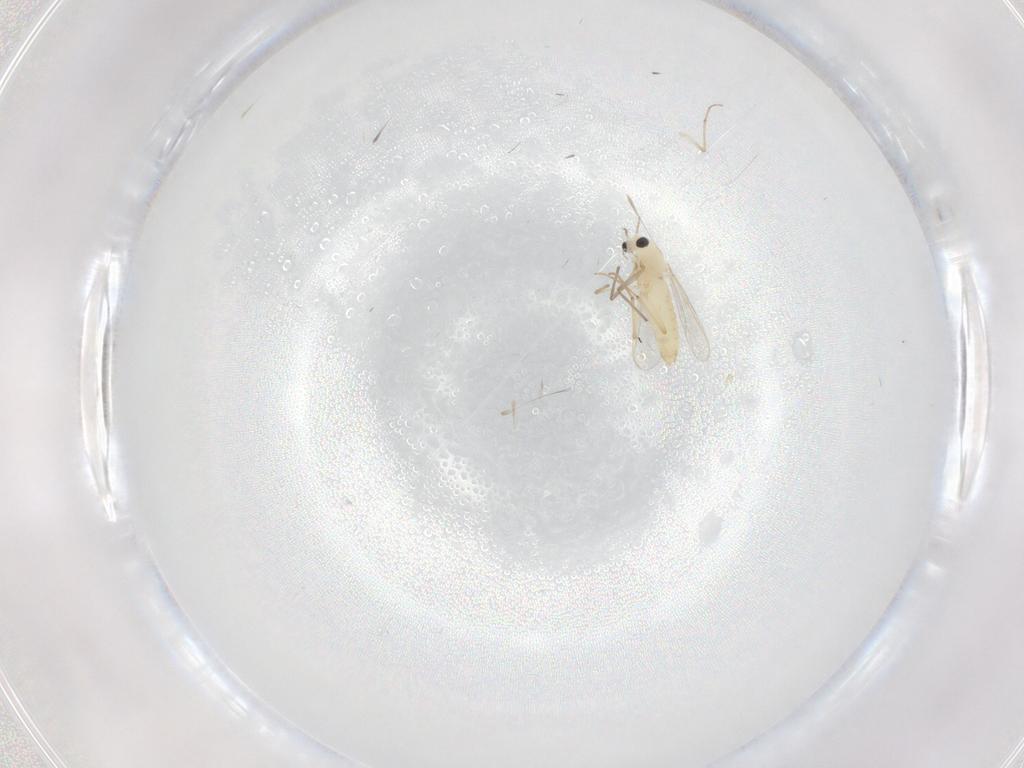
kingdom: Animalia
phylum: Arthropoda
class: Insecta
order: Diptera
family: Chironomidae
